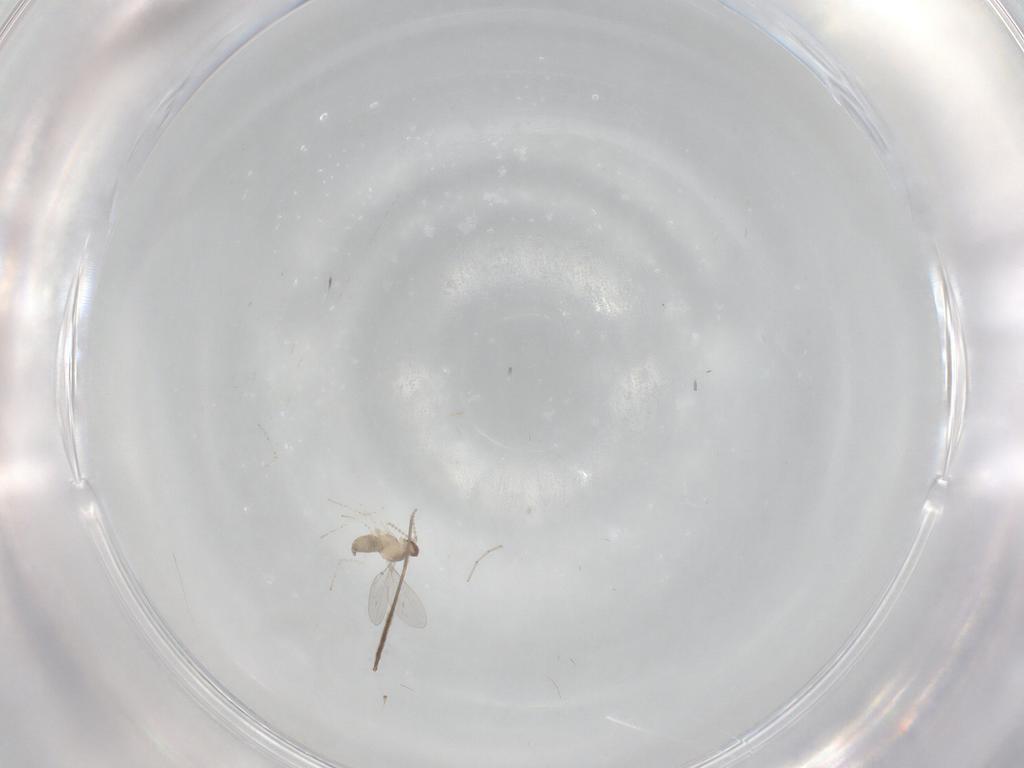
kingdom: Animalia
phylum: Arthropoda
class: Insecta
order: Diptera
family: Cecidomyiidae
